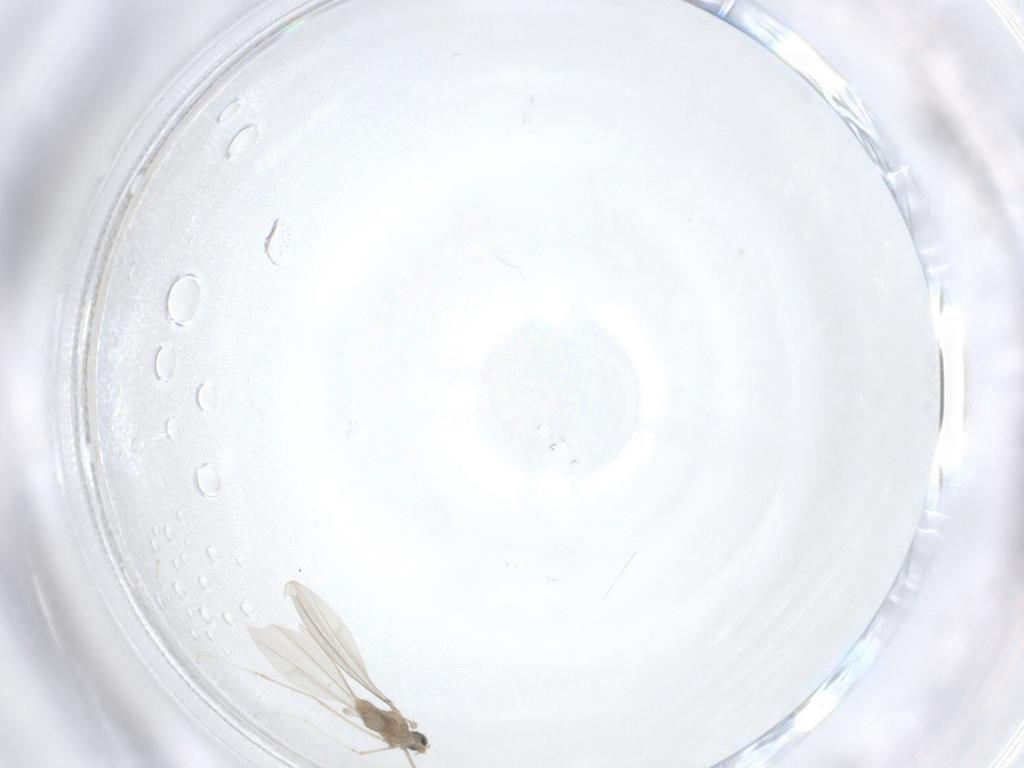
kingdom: Animalia
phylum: Arthropoda
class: Insecta
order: Diptera
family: Cecidomyiidae
